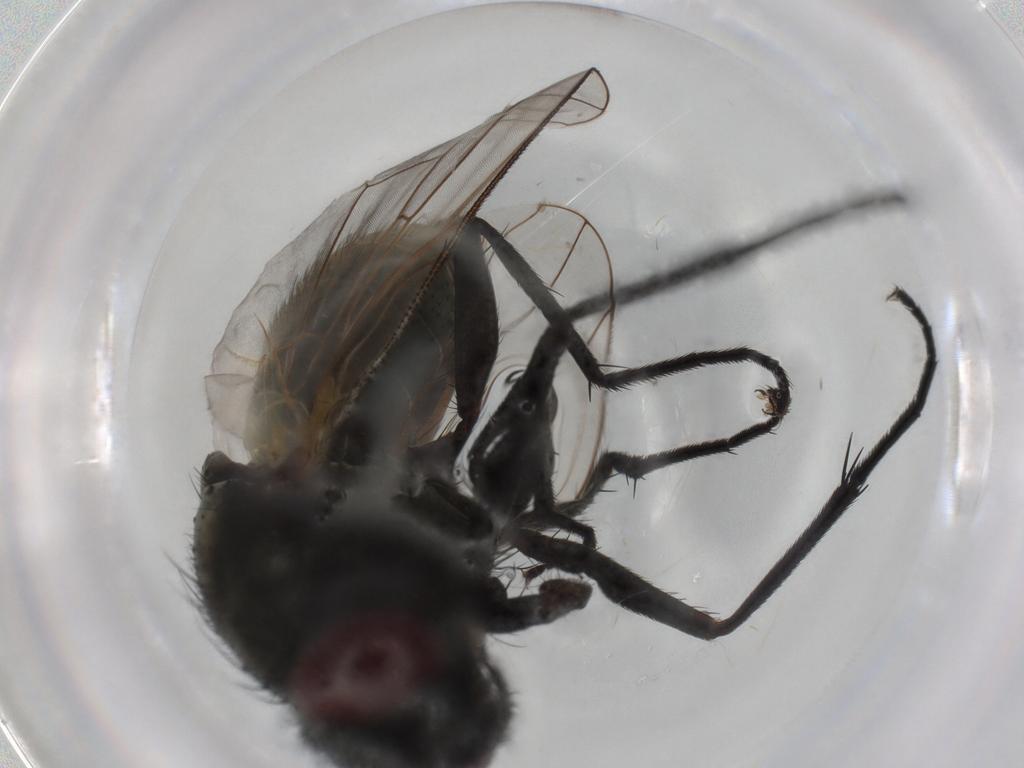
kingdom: Animalia
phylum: Arthropoda
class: Insecta
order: Diptera
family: Muscidae
